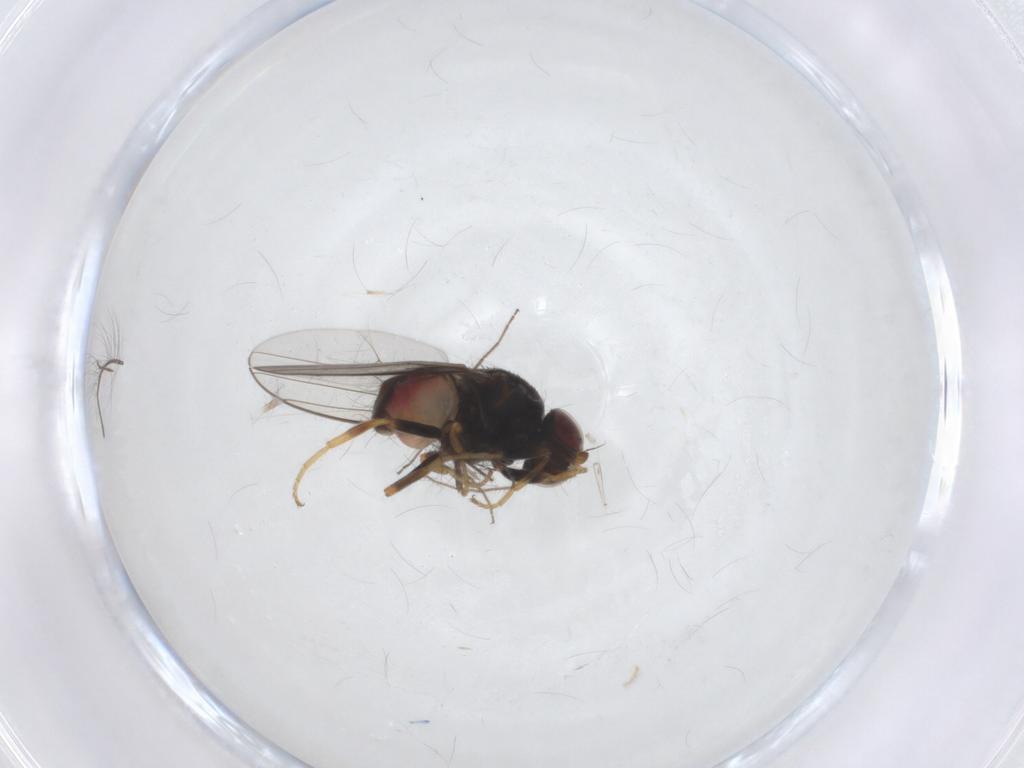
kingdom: Animalia
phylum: Arthropoda
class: Insecta
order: Diptera
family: Chloropidae
